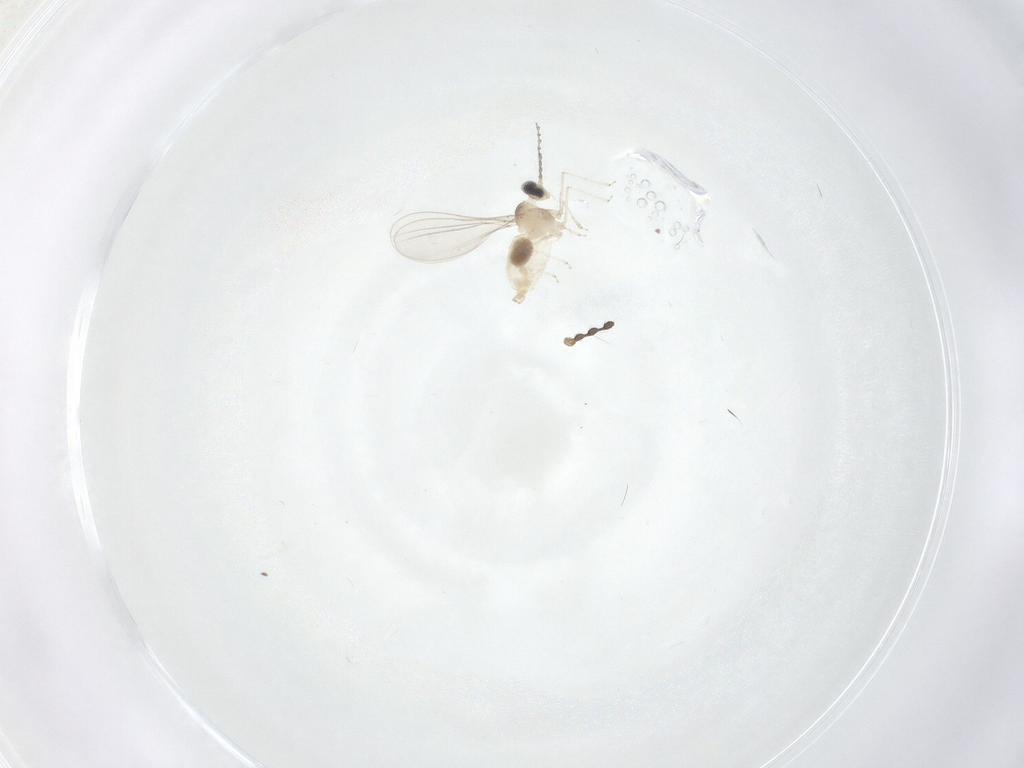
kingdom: Animalia
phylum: Arthropoda
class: Insecta
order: Diptera
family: Cecidomyiidae
